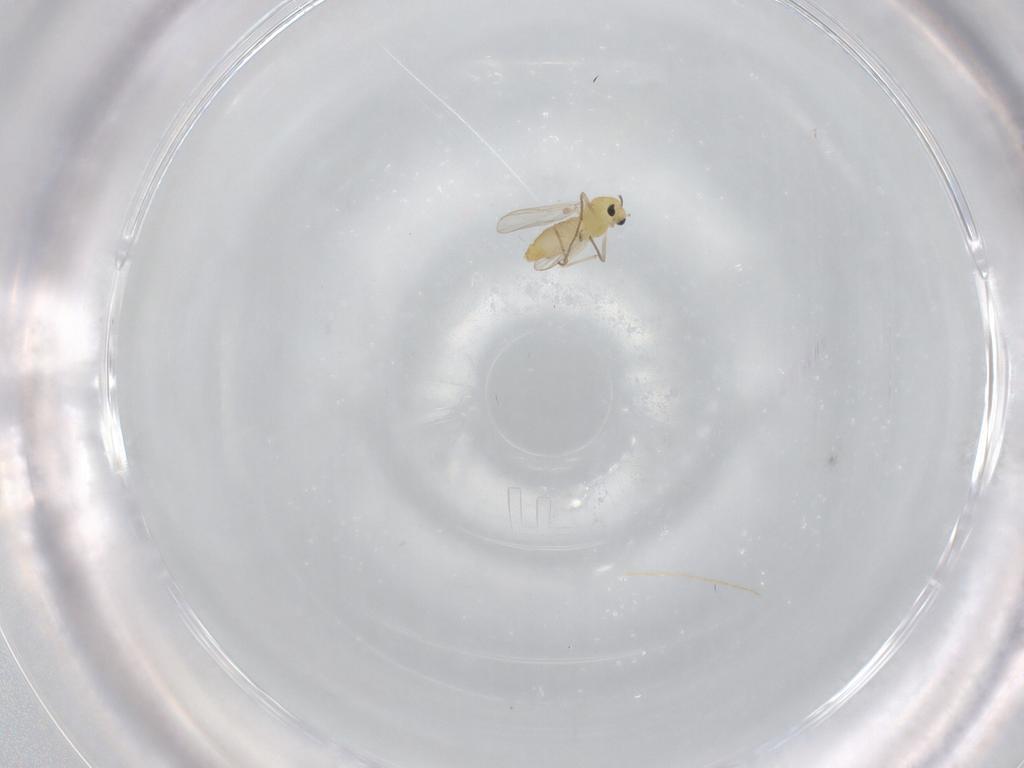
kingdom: Animalia
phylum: Arthropoda
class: Insecta
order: Diptera
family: Chironomidae
